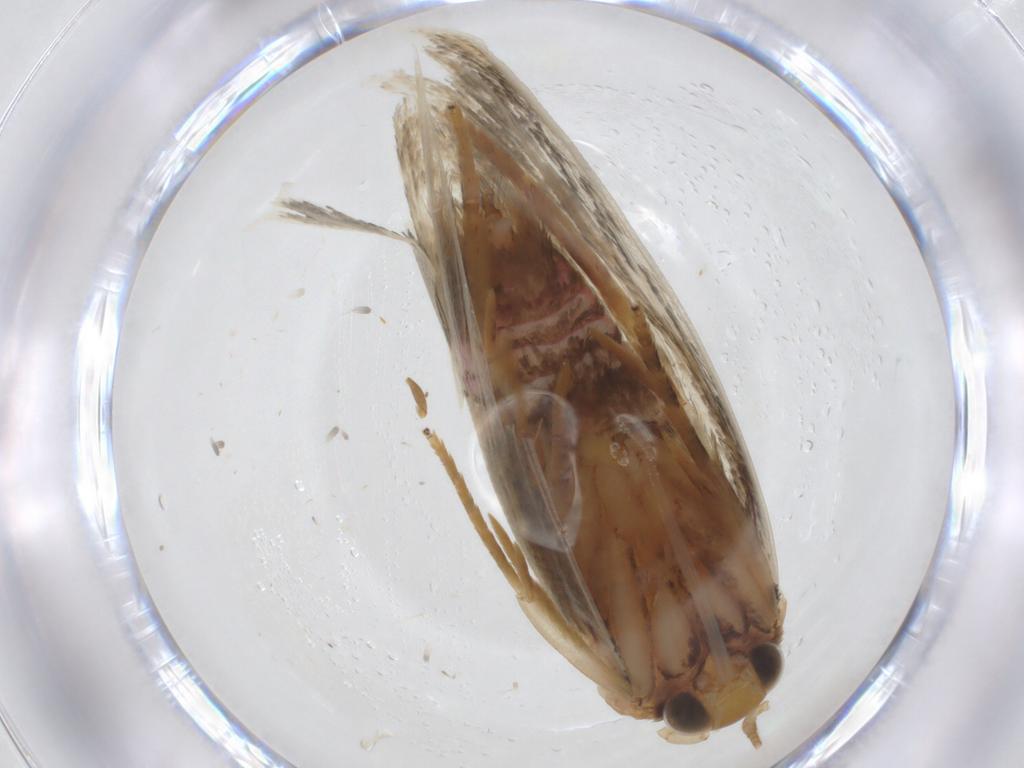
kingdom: Animalia
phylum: Arthropoda
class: Insecta
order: Lepidoptera
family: Oecophoridae
